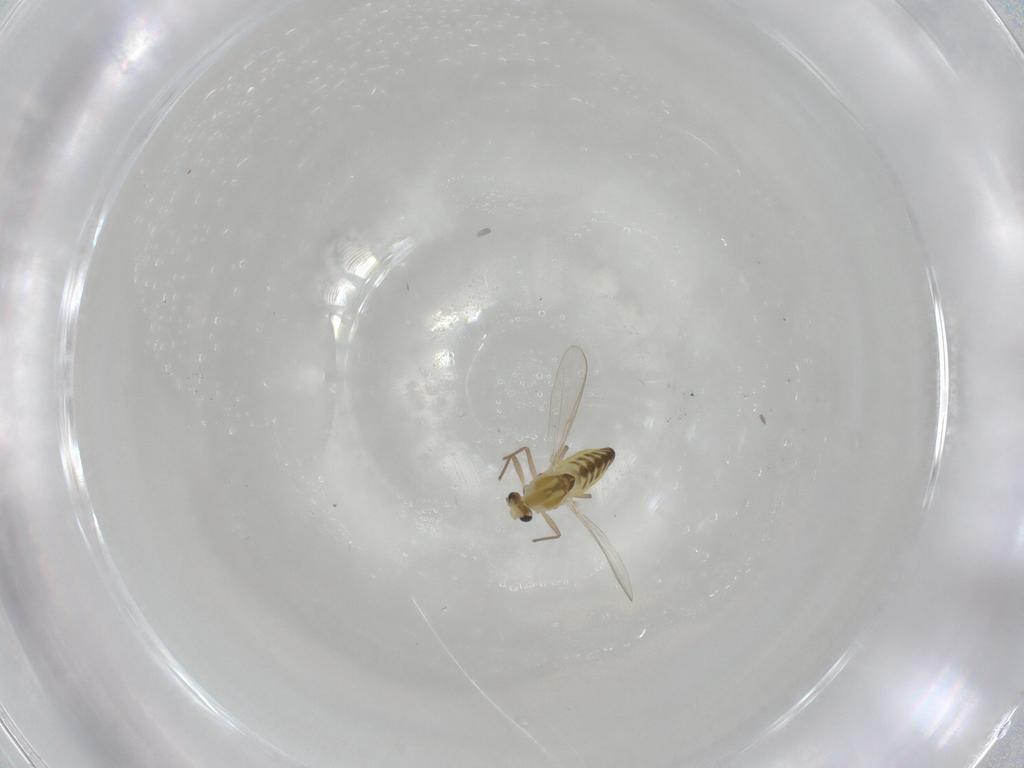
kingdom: Animalia
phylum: Arthropoda
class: Insecta
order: Diptera
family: Chironomidae
